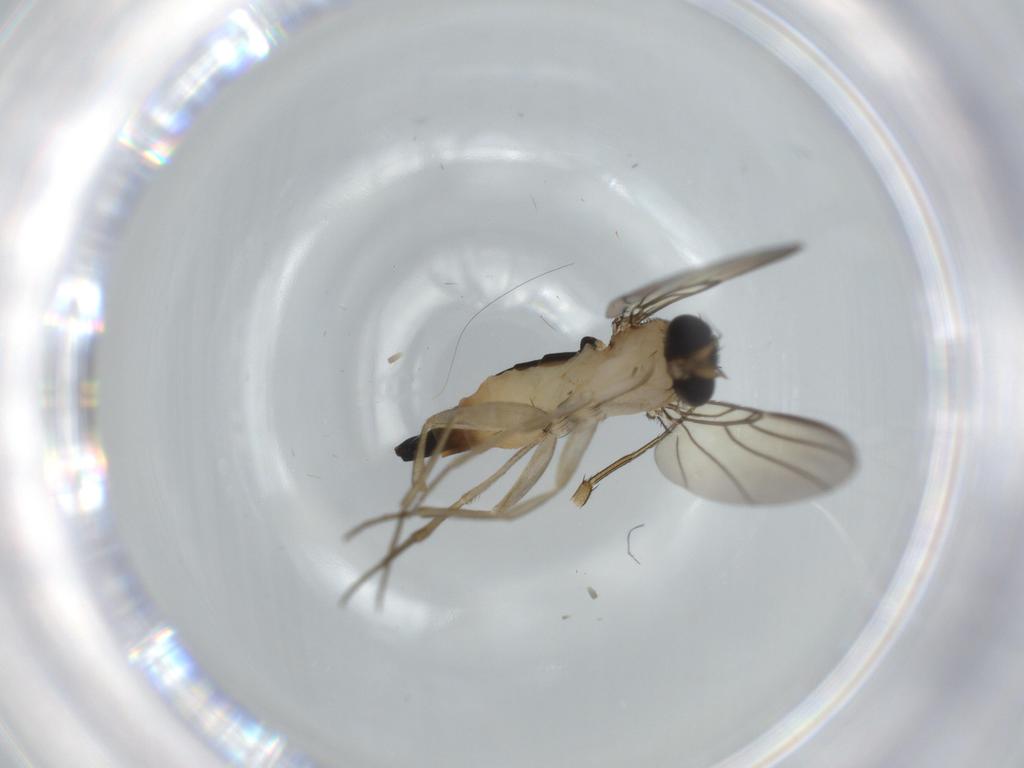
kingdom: Animalia
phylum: Arthropoda
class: Insecta
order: Diptera
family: Phoridae
